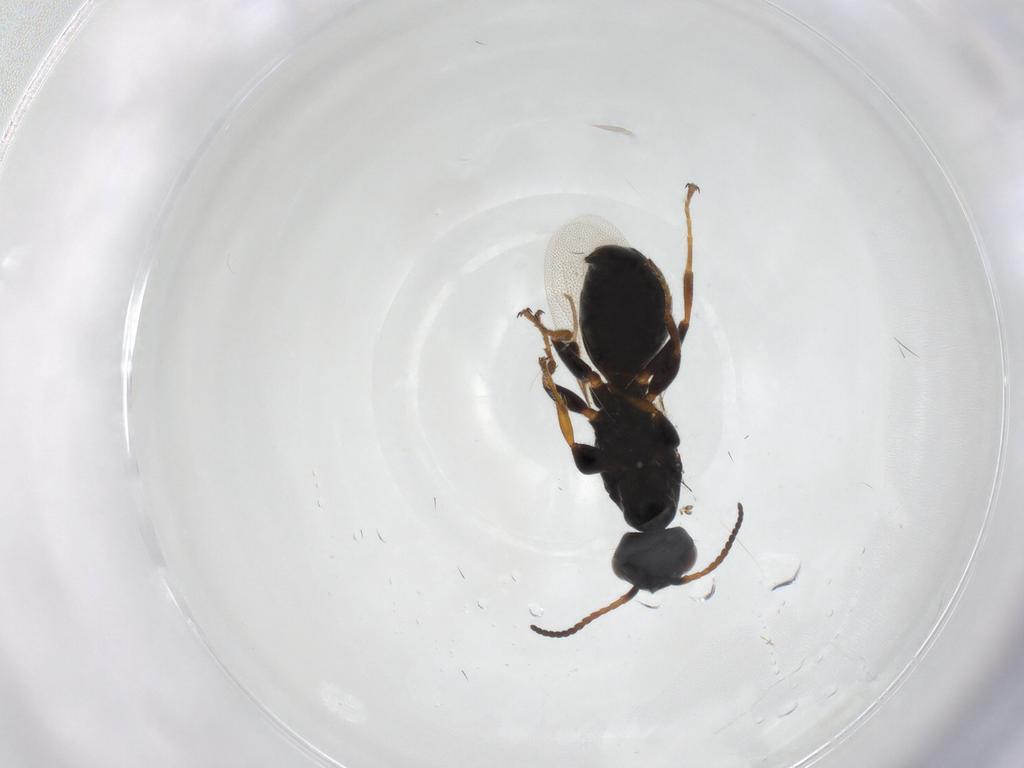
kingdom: Animalia
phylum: Arthropoda
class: Insecta
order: Hymenoptera
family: Bethylidae
